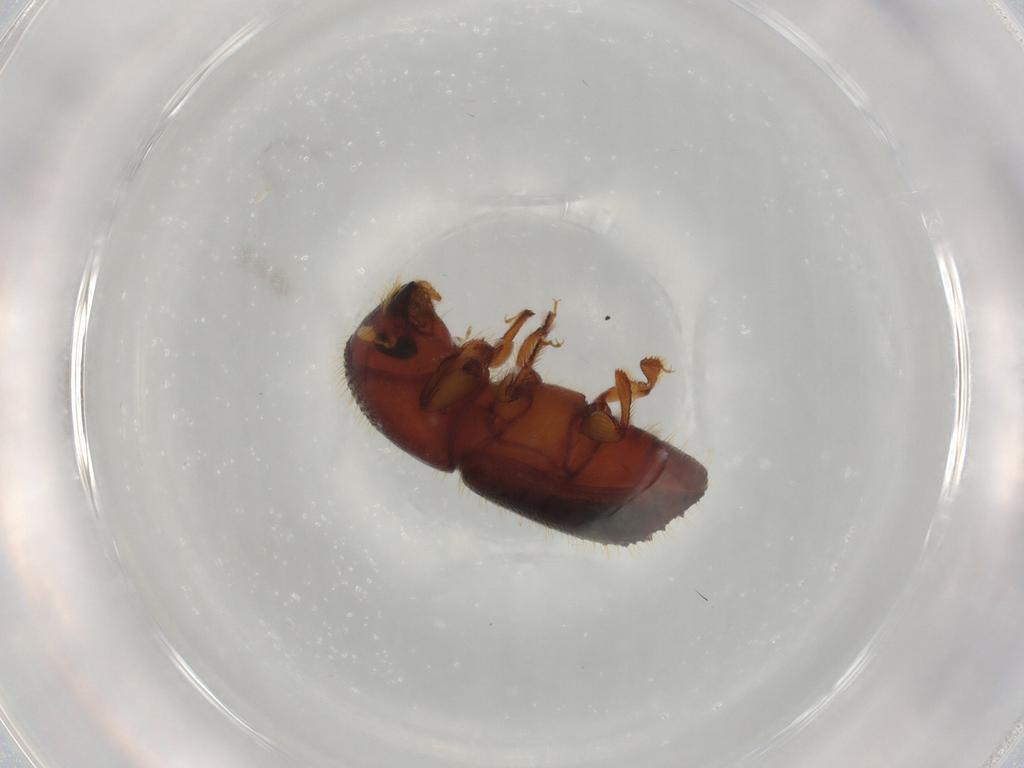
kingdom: Animalia
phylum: Arthropoda
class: Insecta
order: Coleoptera
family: Curculionidae
